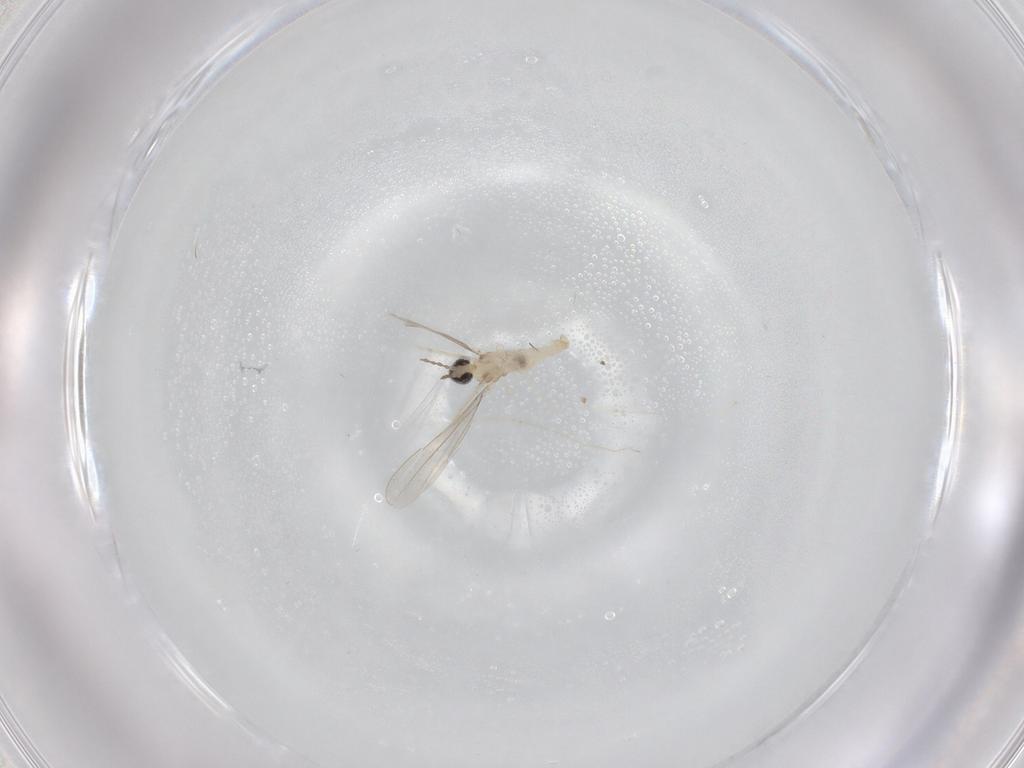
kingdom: Animalia
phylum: Arthropoda
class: Insecta
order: Diptera
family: Cecidomyiidae
